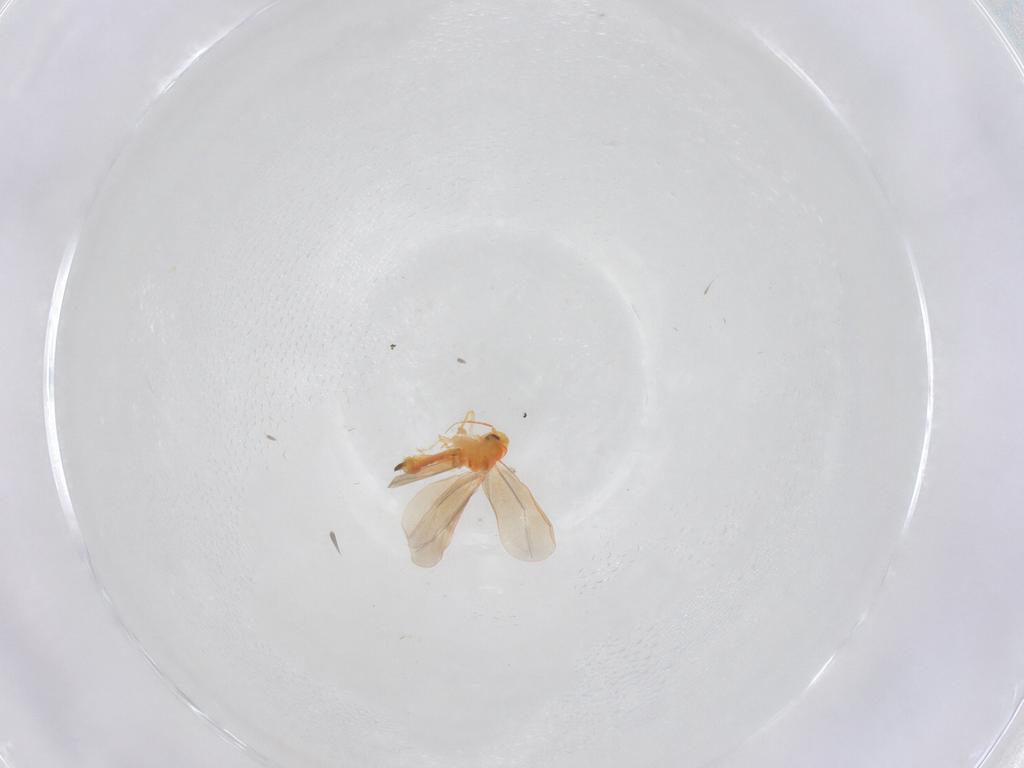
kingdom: Animalia
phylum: Arthropoda
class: Insecta
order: Hemiptera
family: Aleyrodidae
